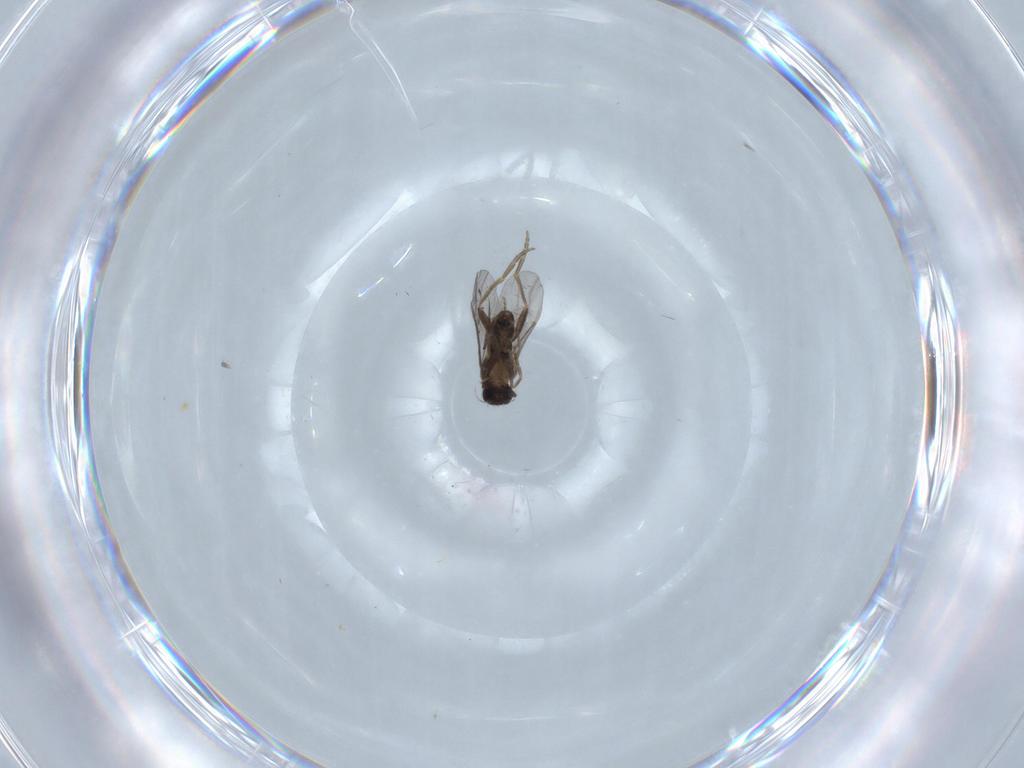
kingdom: Animalia
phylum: Arthropoda
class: Insecta
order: Diptera
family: Sciaridae
